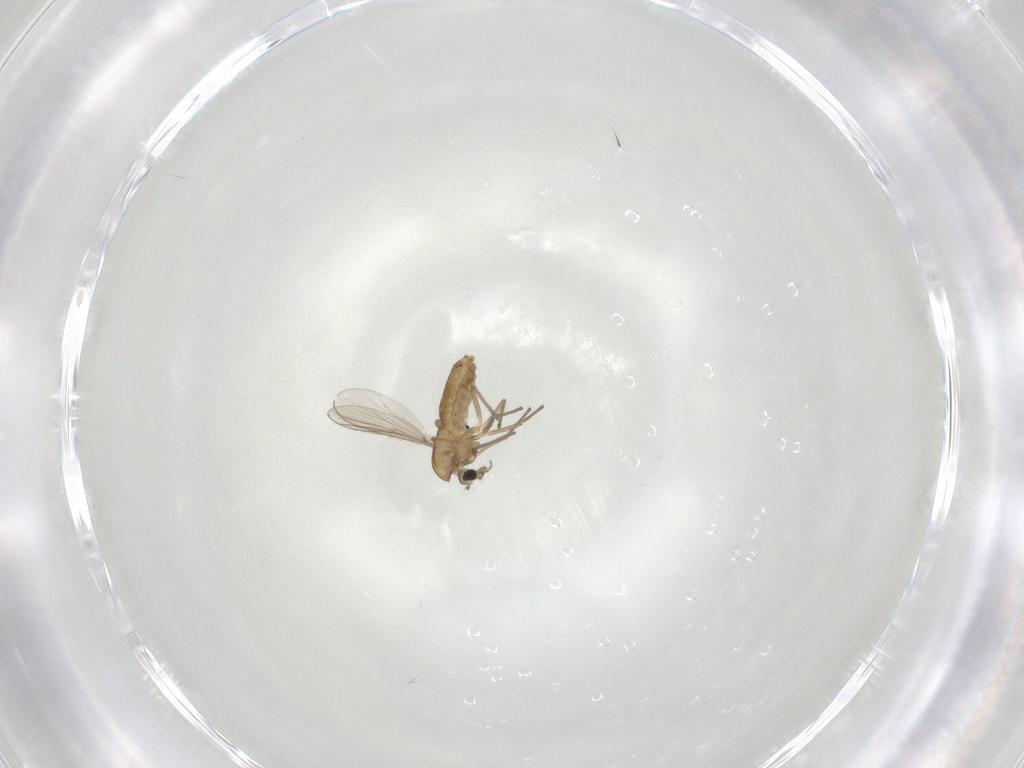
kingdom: Animalia
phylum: Arthropoda
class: Insecta
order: Diptera
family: Chironomidae
